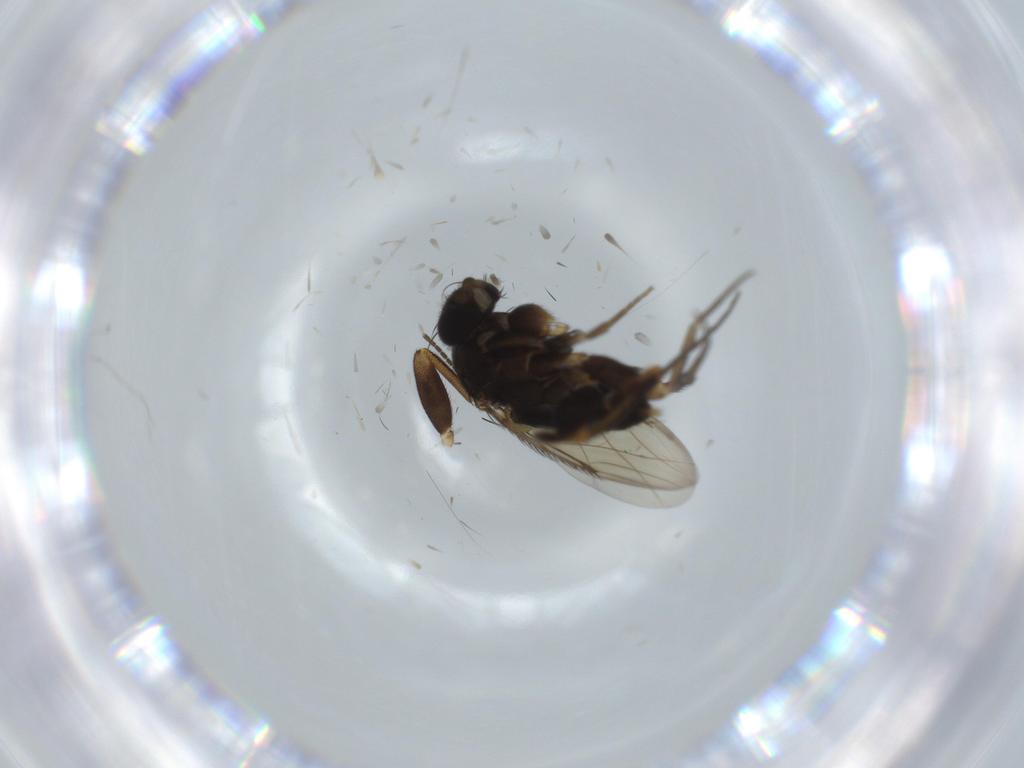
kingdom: Animalia
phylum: Arthropoda
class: Insecta
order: Diptera
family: Phoridae
